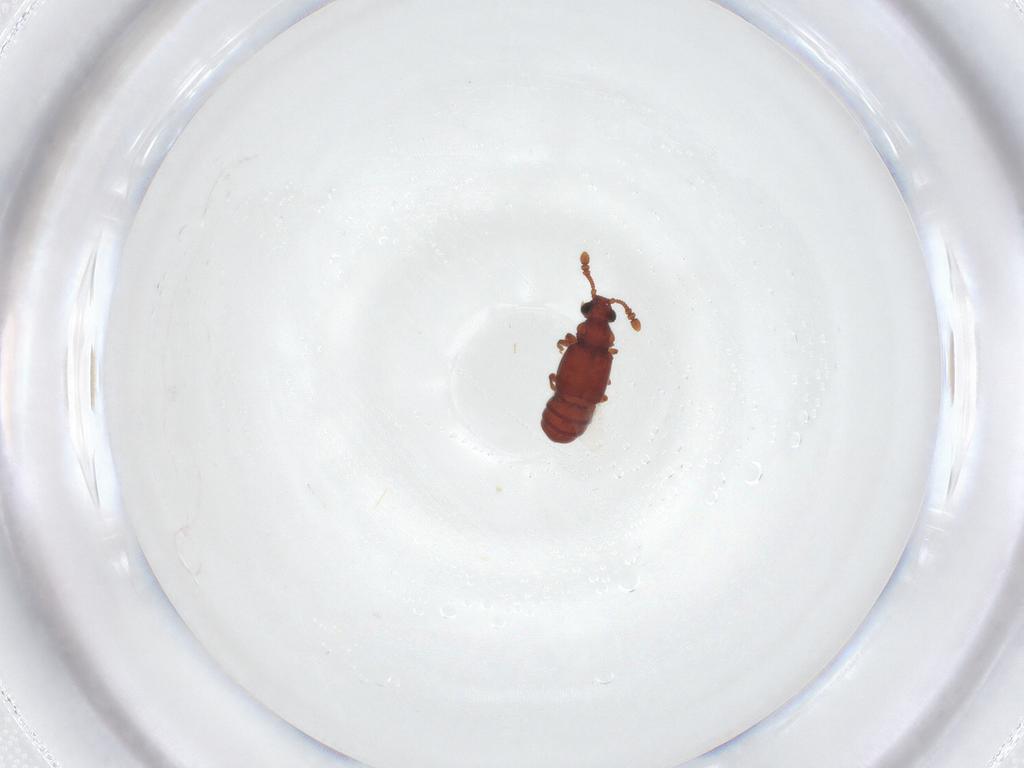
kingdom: Animalia
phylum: Arthropoda
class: Insecta
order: Coleoptera
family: Staphylinidae
